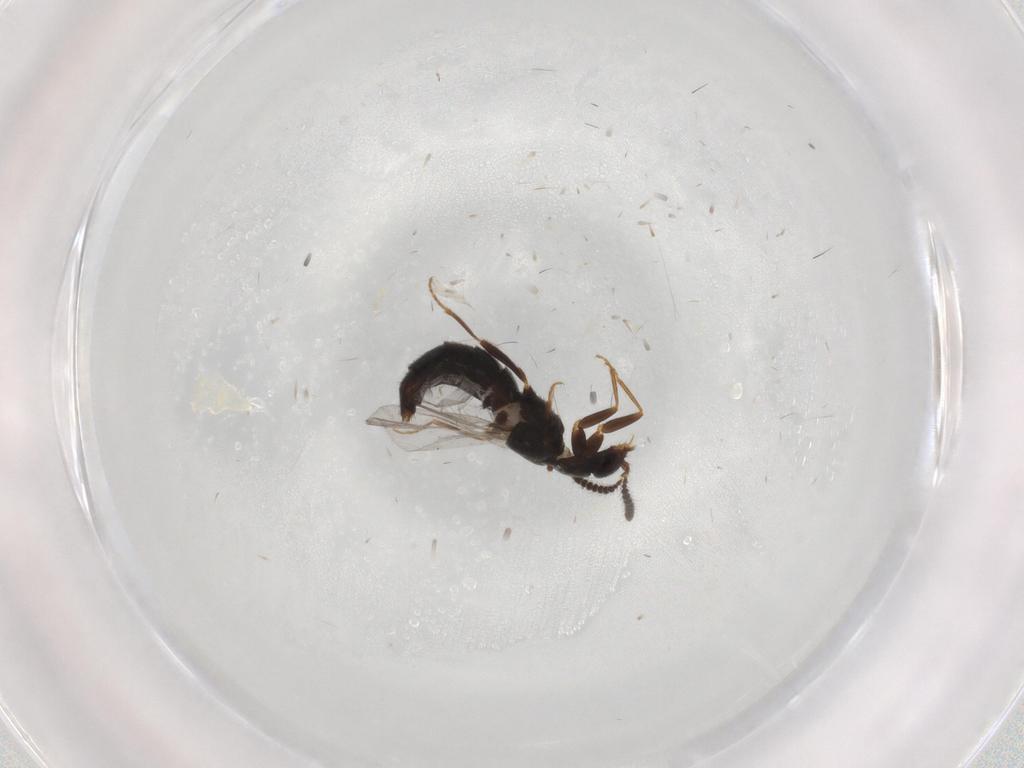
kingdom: Animalia
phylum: Arthropoda
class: Insecta
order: Coleoptera
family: Staphylinidae
